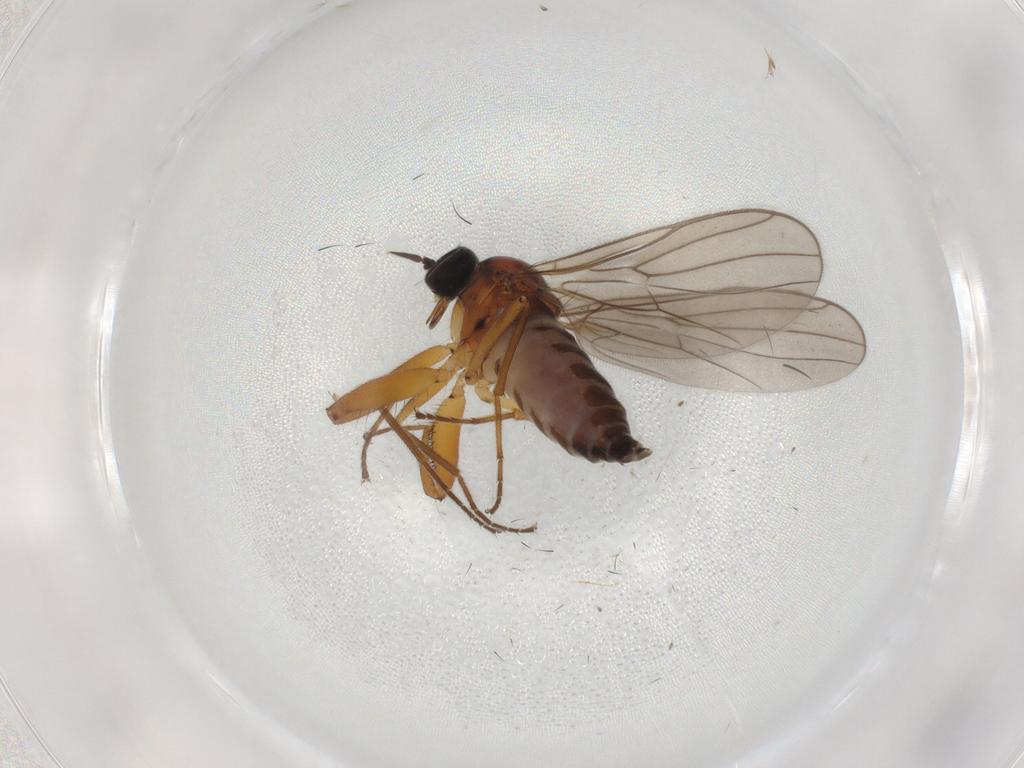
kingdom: Animalia
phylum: Arthropoda
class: Insecta
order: Diptera
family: Hybotidae
